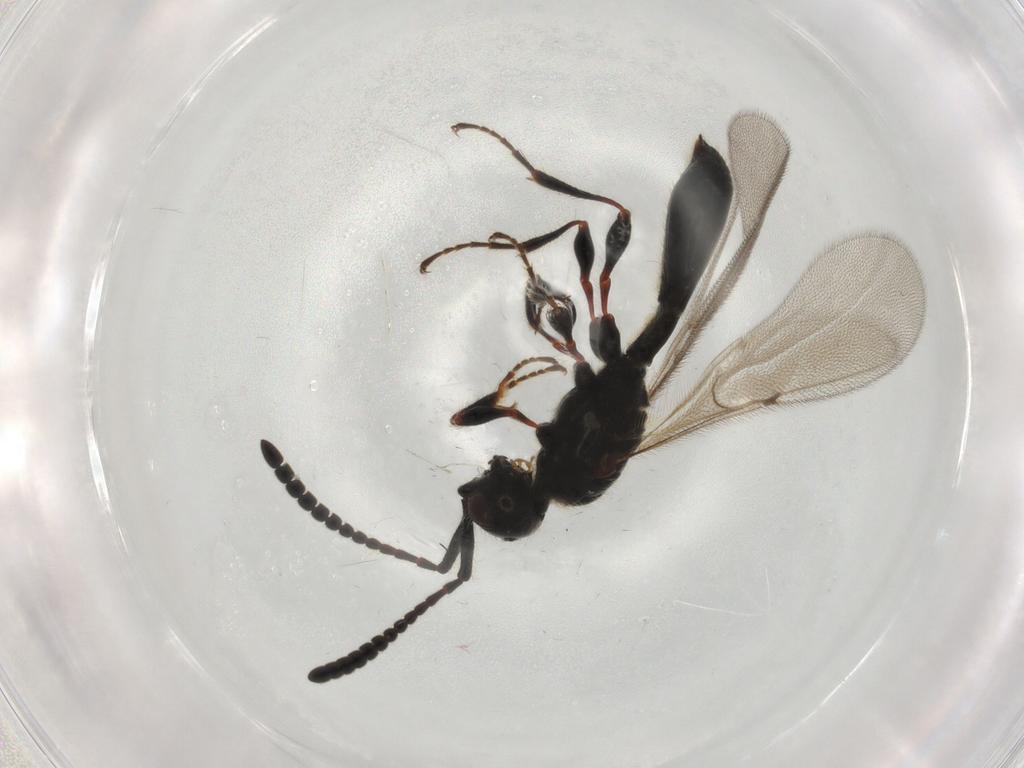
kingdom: Animalia
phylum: Arthropoda
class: Insecta
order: Hymenoptera
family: Diapriidae
